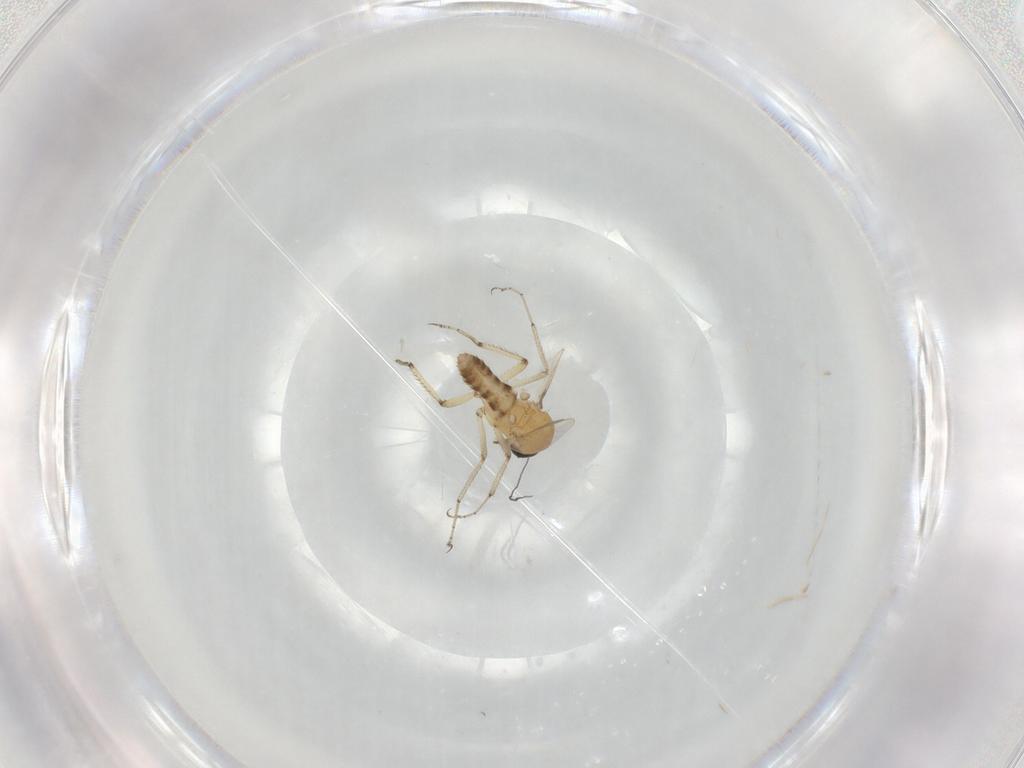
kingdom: Animalia
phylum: Arthropoda
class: Insecta
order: Diptera
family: Ceratopogonidae
